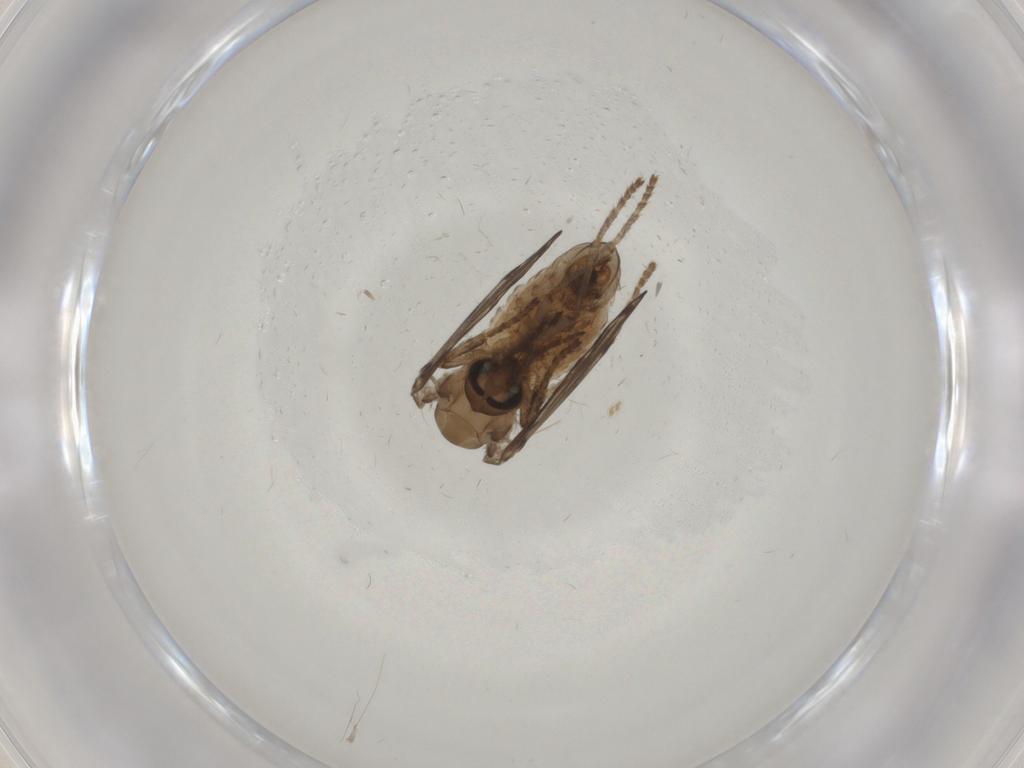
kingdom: Animalia
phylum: Arthropoda
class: Insecta
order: Diptera
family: Psychodidae
